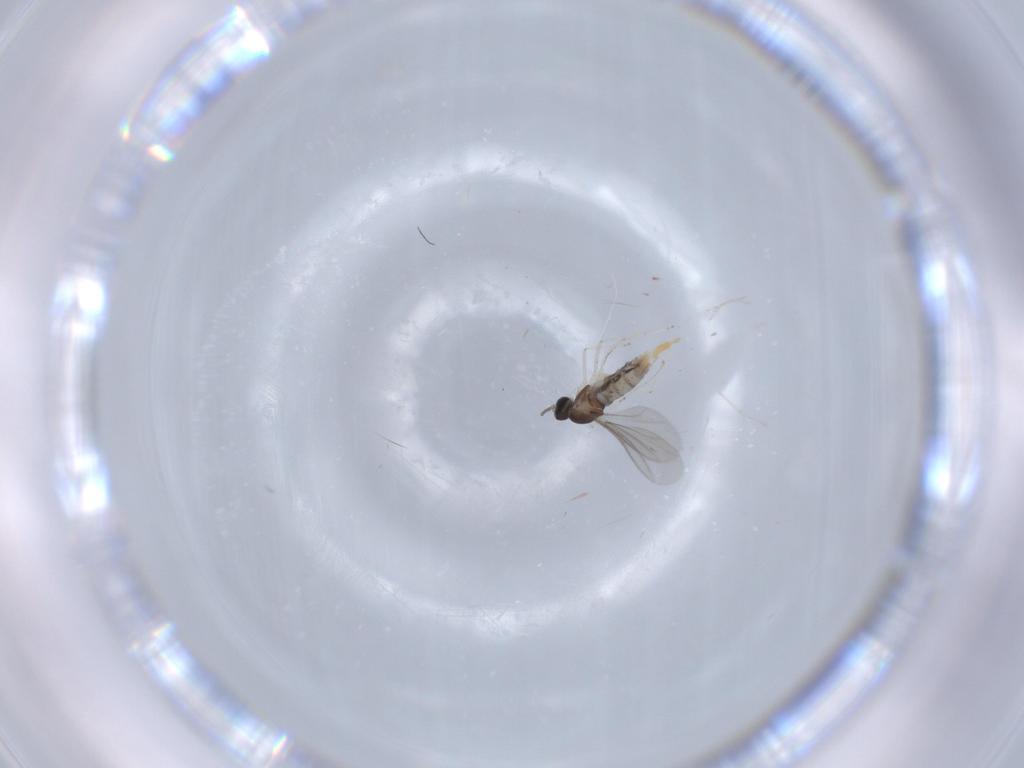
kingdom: Animalia
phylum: Arthropoda
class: Insecta
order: Diptera
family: Cecidomyiidae
